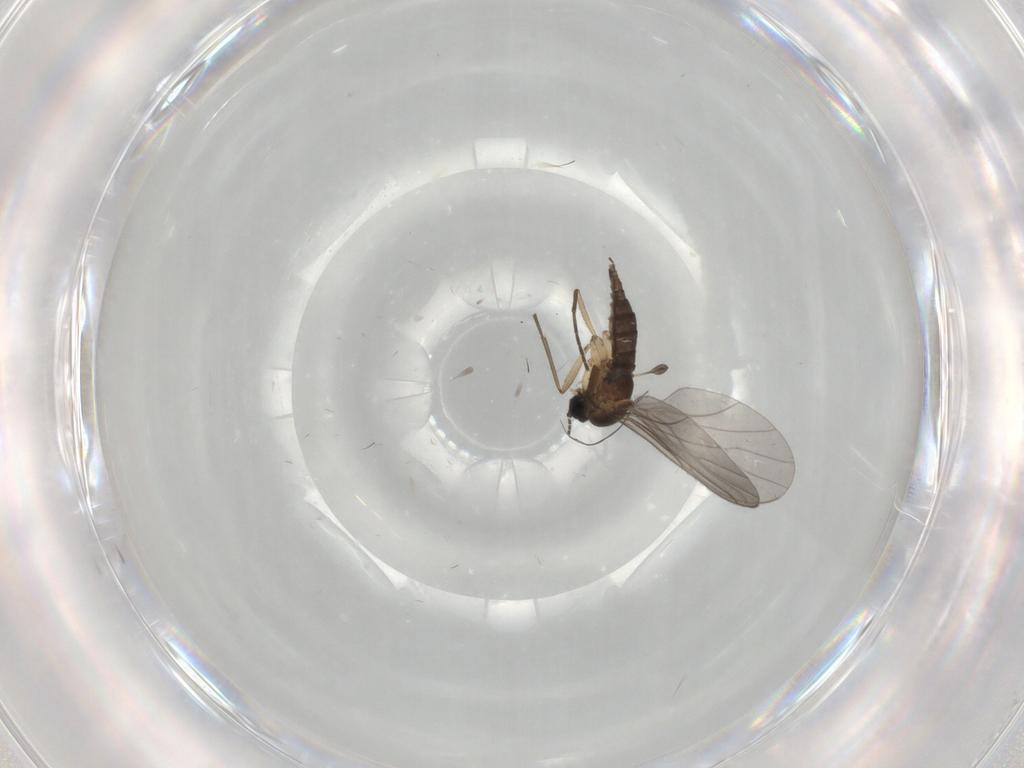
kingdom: Animalia
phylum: Arthropoda
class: Insecta
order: Diptera
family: Sciaridae
